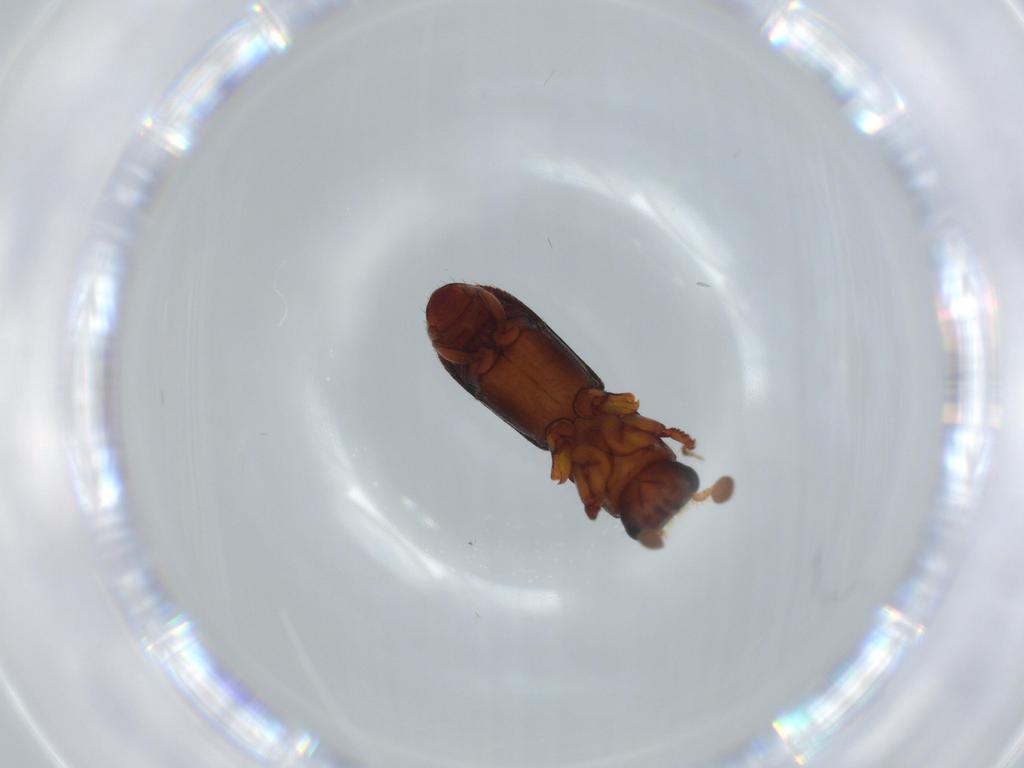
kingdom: Animalia
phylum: Arthropoda
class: Insecta
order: Coleoptera
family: Curculionidae
